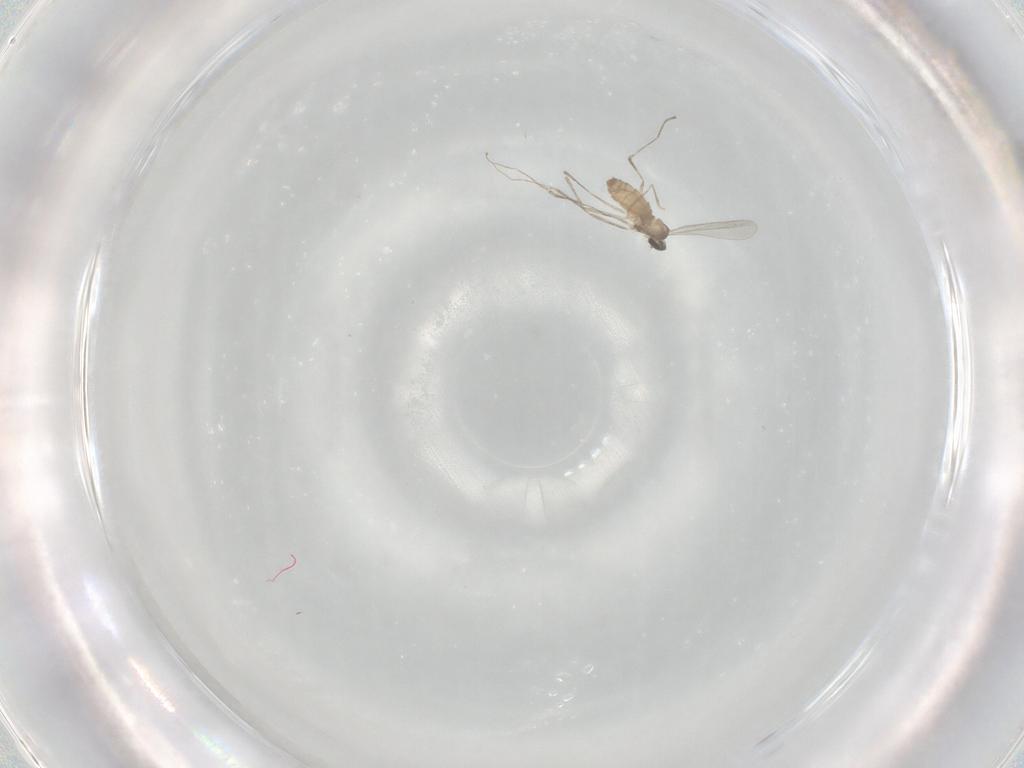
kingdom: Animalia
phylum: Arthropoda
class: Insecta
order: Diptera
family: Cecidomyiidae
